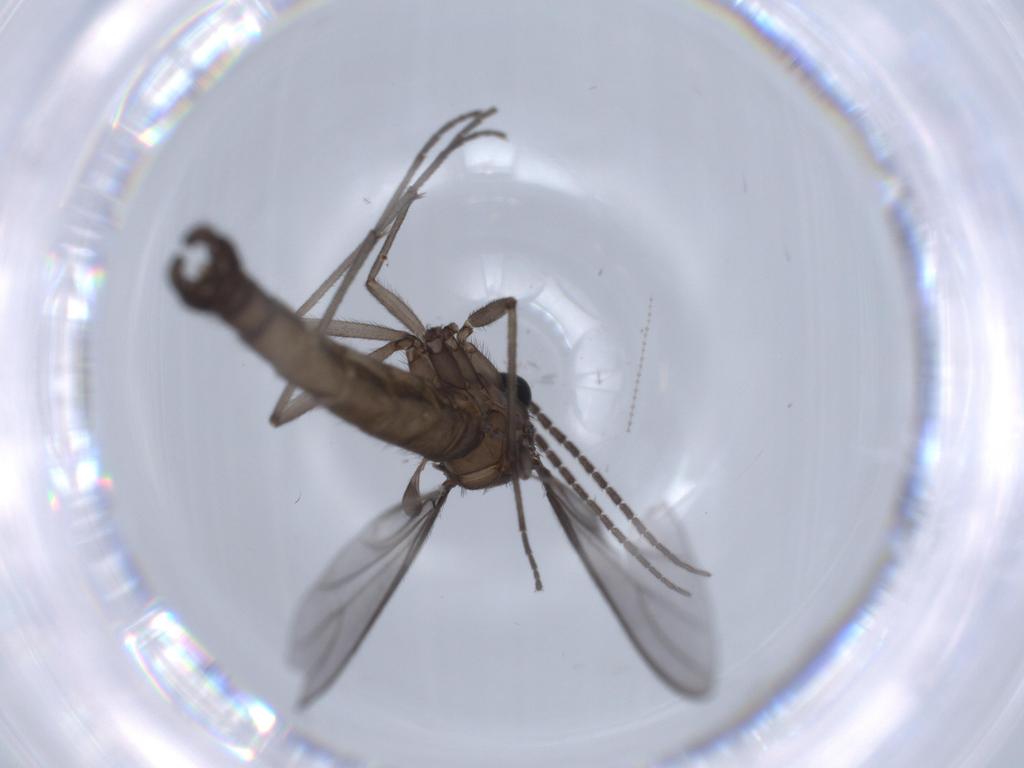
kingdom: Animalia
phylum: Arthropoda
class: Insecta
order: Diptera
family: Cecidomyiidae
